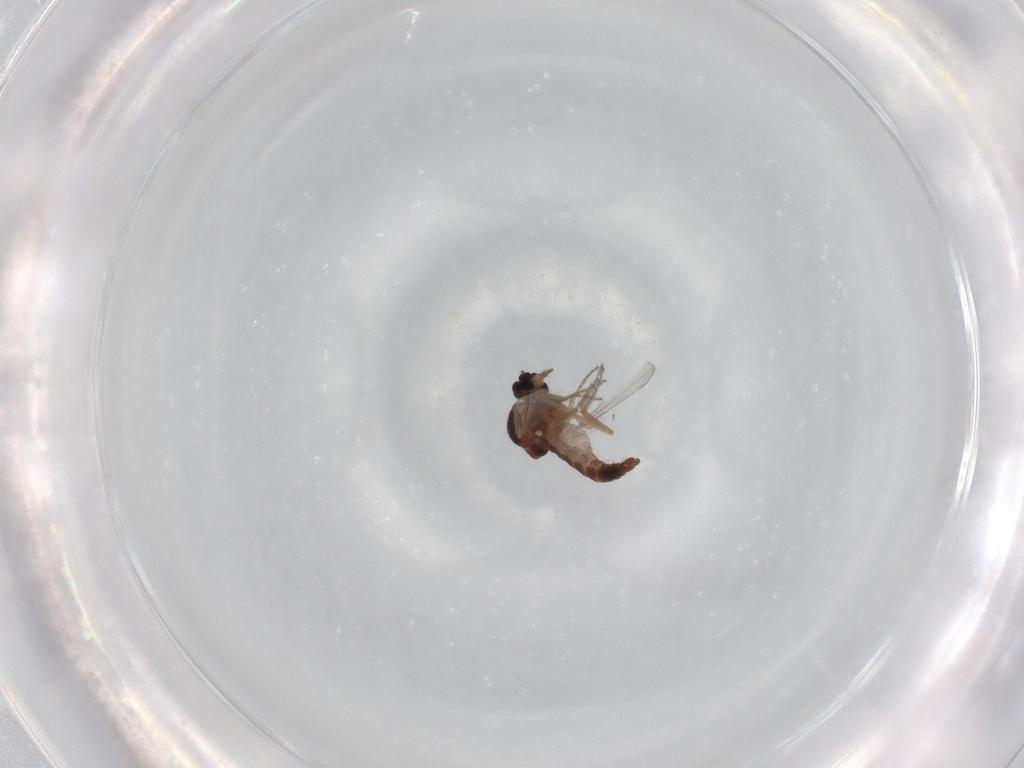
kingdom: Animalia
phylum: Arthropoda
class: Insecta
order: Diptera
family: Ceratopogonidae
